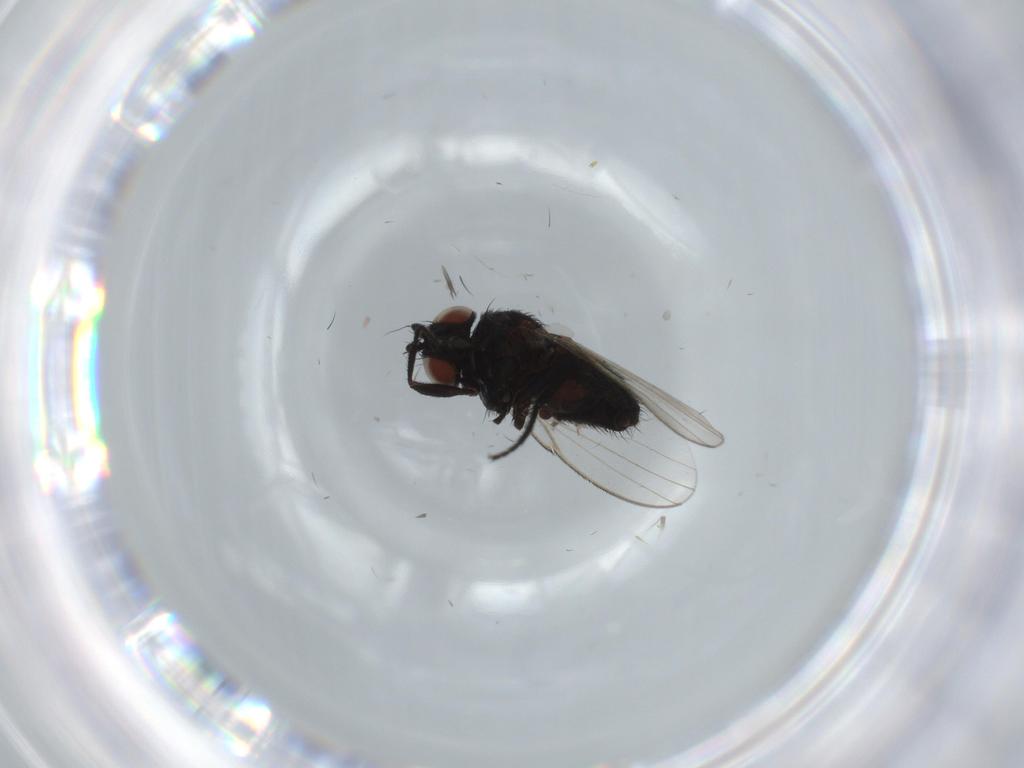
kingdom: Animalia
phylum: Arthropoda
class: Insecta
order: Diptera
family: Milichiidae
